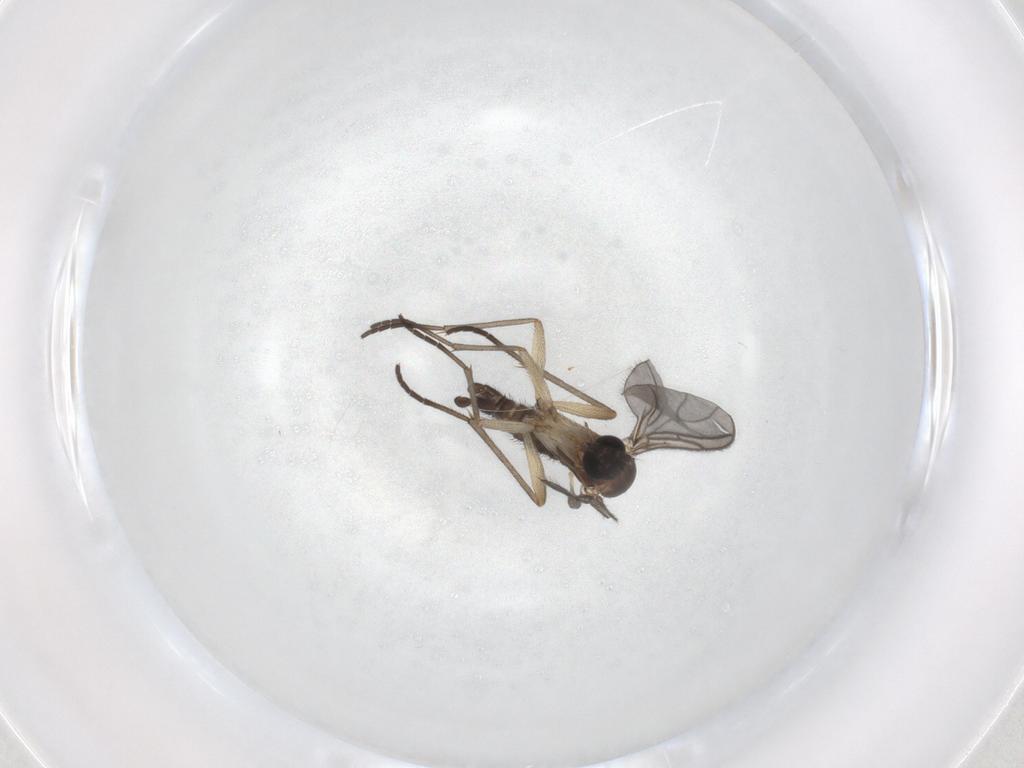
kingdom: Animalia
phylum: Arthropoda
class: Insecta
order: Diptera
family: Sciaridae
